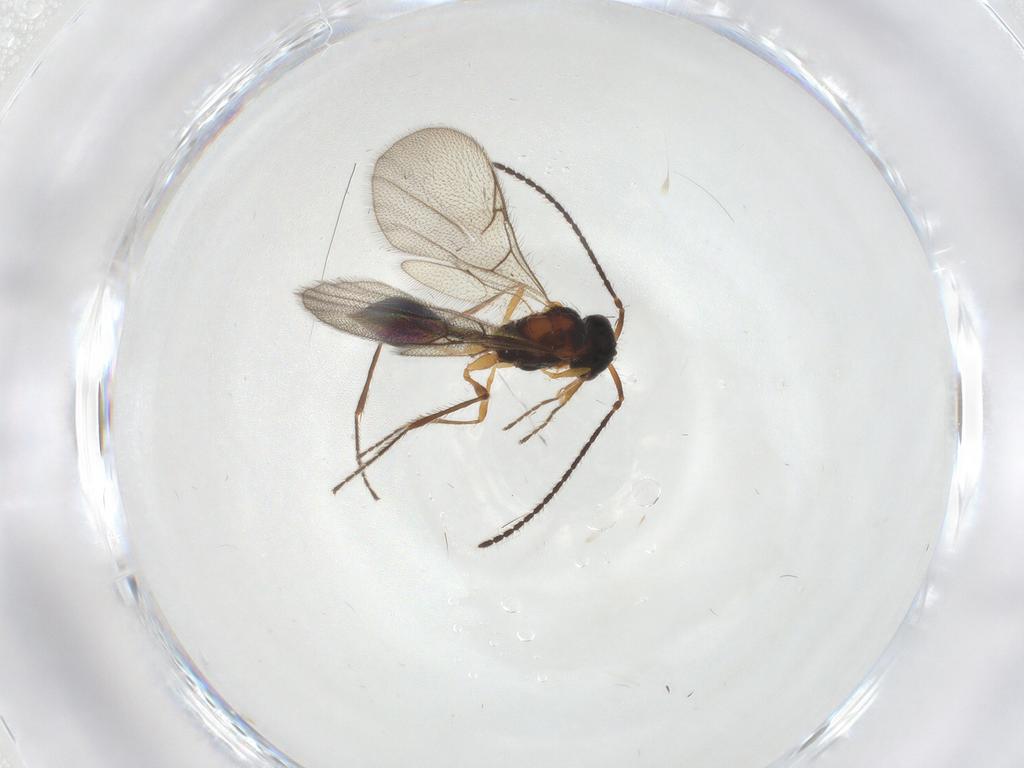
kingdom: Animalia
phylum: Arthropoda
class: Insecta
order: Hymenoptera
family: Diapriidae
